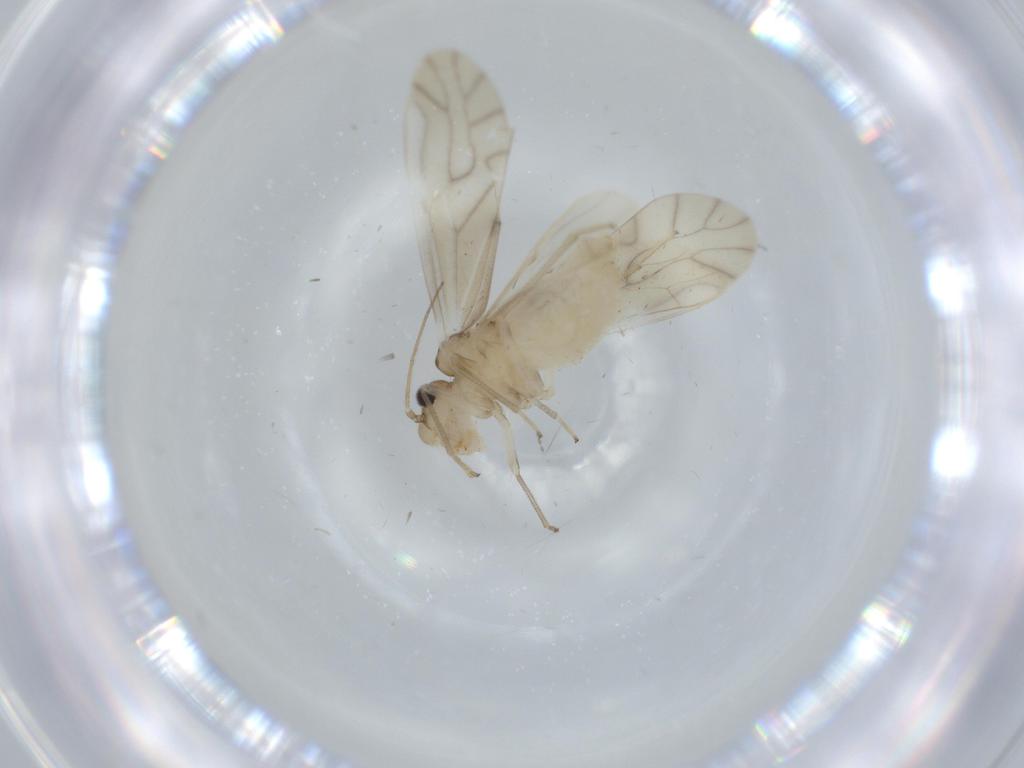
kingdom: Animalia
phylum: Arthropoda
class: Insecta
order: Psocodea
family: Caeciliusidae
